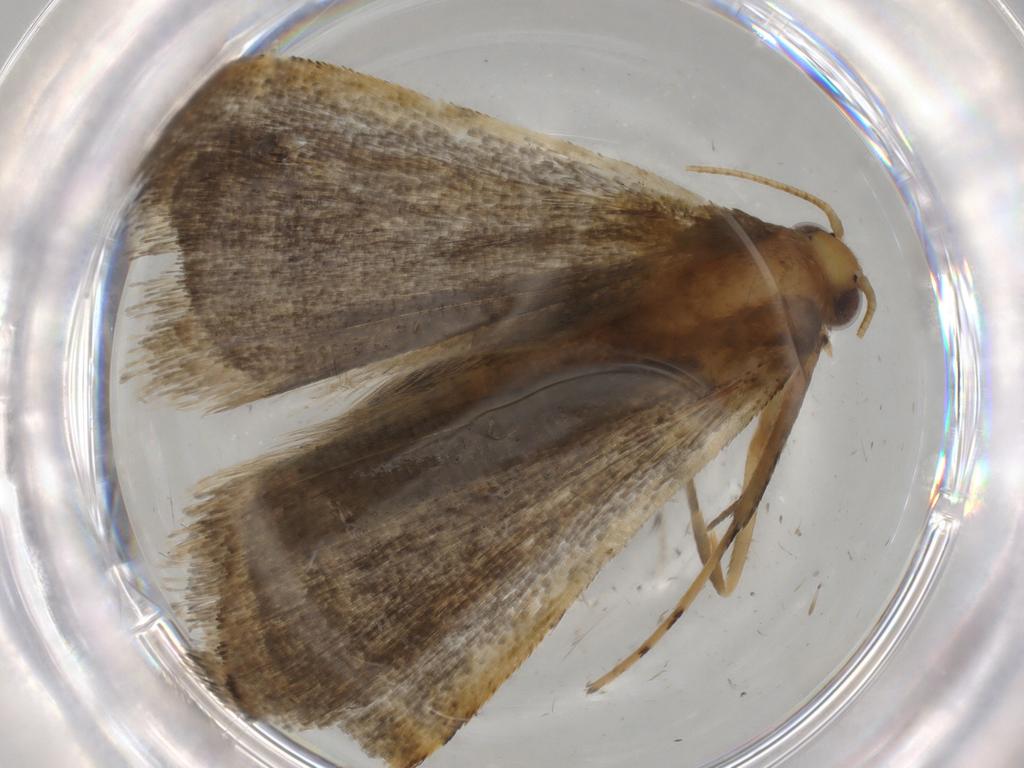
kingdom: Animalia
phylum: Arthropoda
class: Insecta
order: Lepidoptera
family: Gelechiidae
